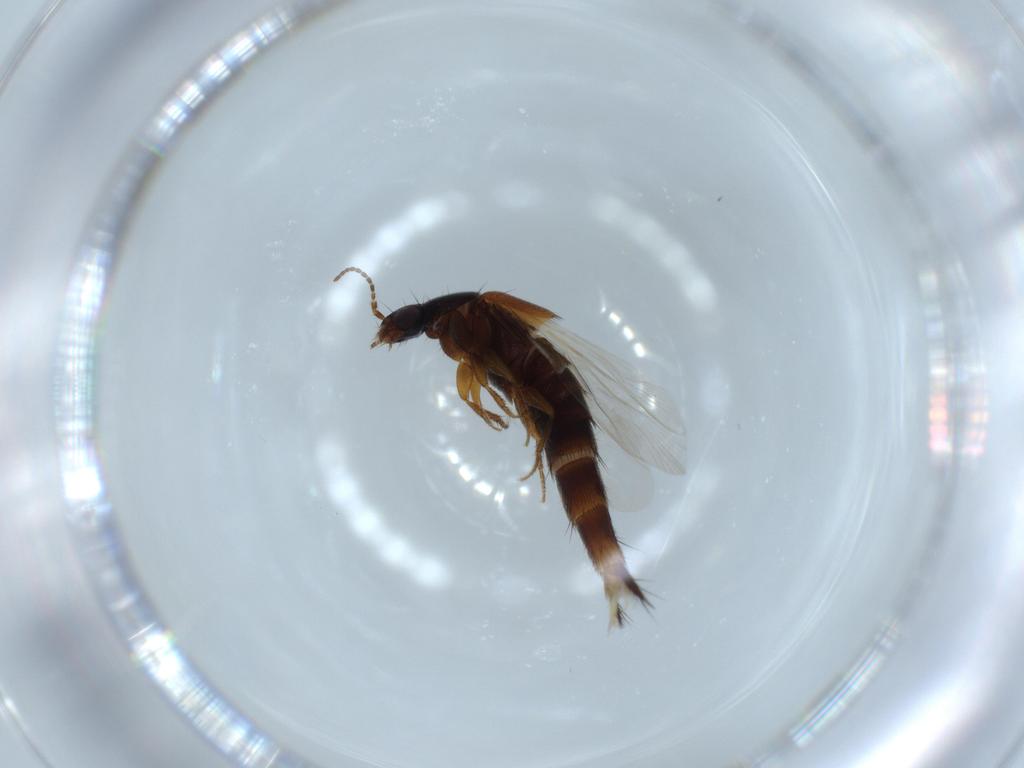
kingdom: Animalia
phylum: Arthropoda
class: Insecta
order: Coleoptera
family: Staphylinidae
